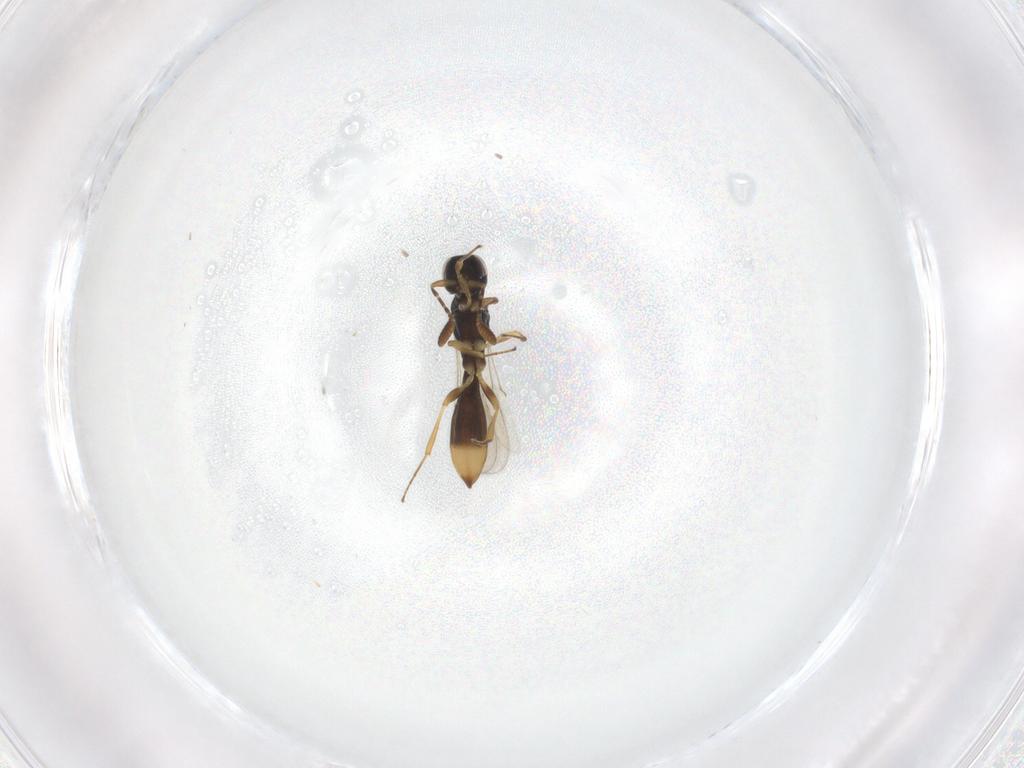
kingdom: Animalia
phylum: Arthropoda
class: Insecta
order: Hymenoptera
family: Scelionidae
